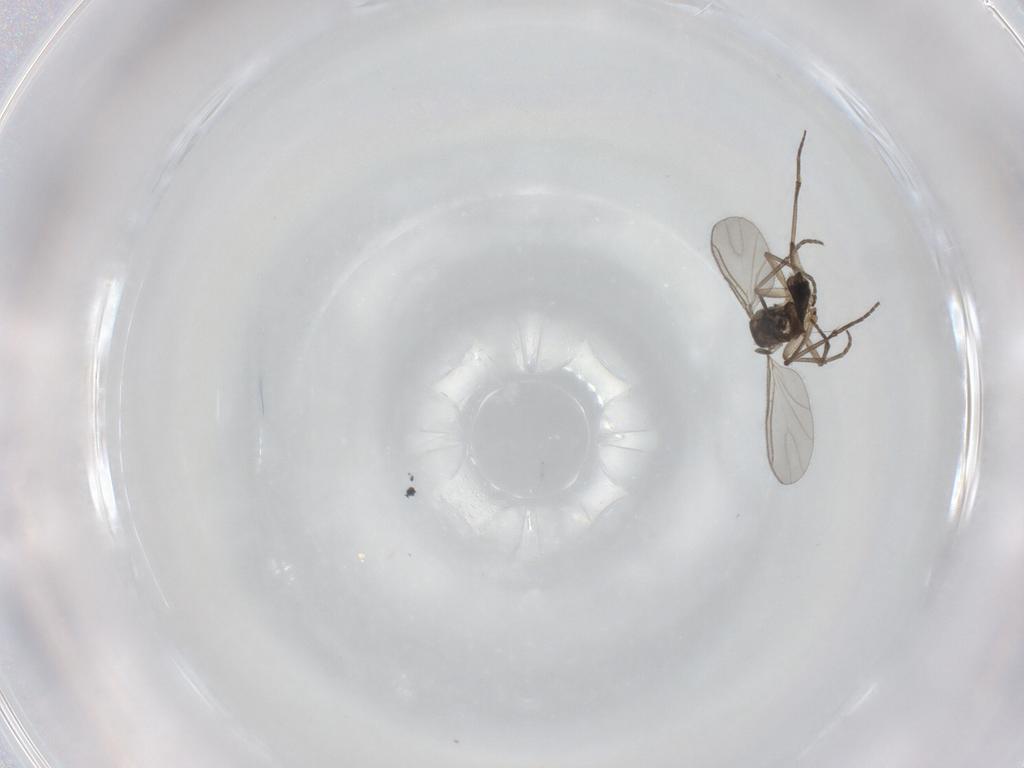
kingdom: Animalia
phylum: Arthropoda
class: Insecta
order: Diptera
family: Sciaridae
